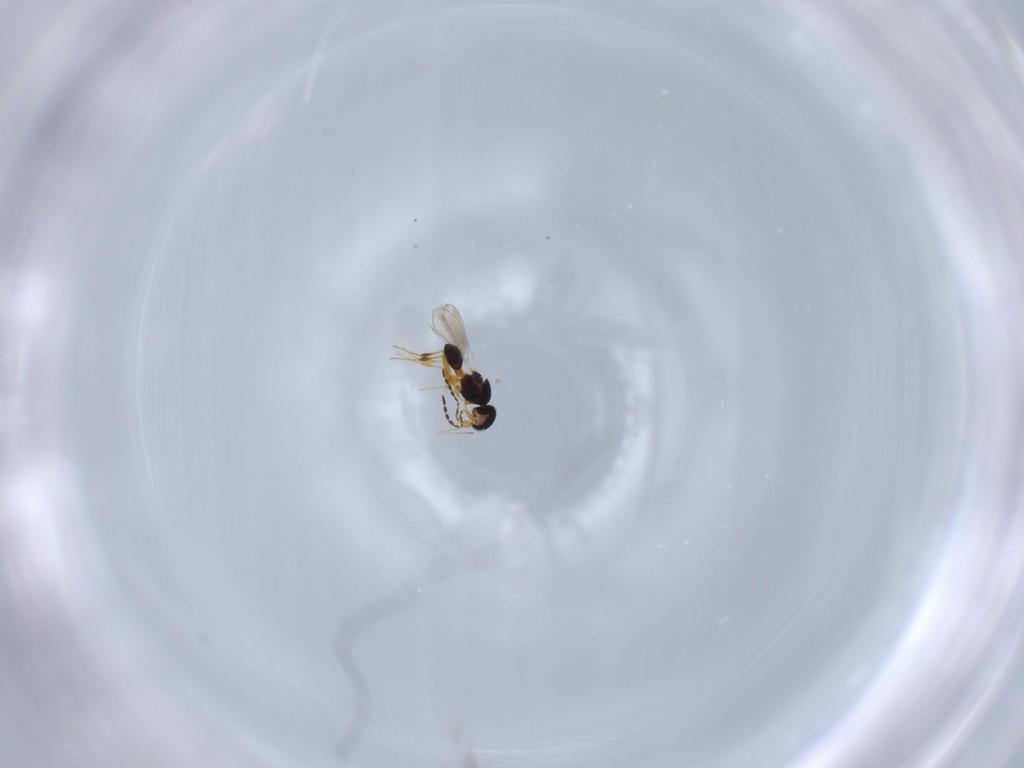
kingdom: Animalia
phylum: Arthropoda
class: Insecta
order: Hymenoptera
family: Platygastridae
